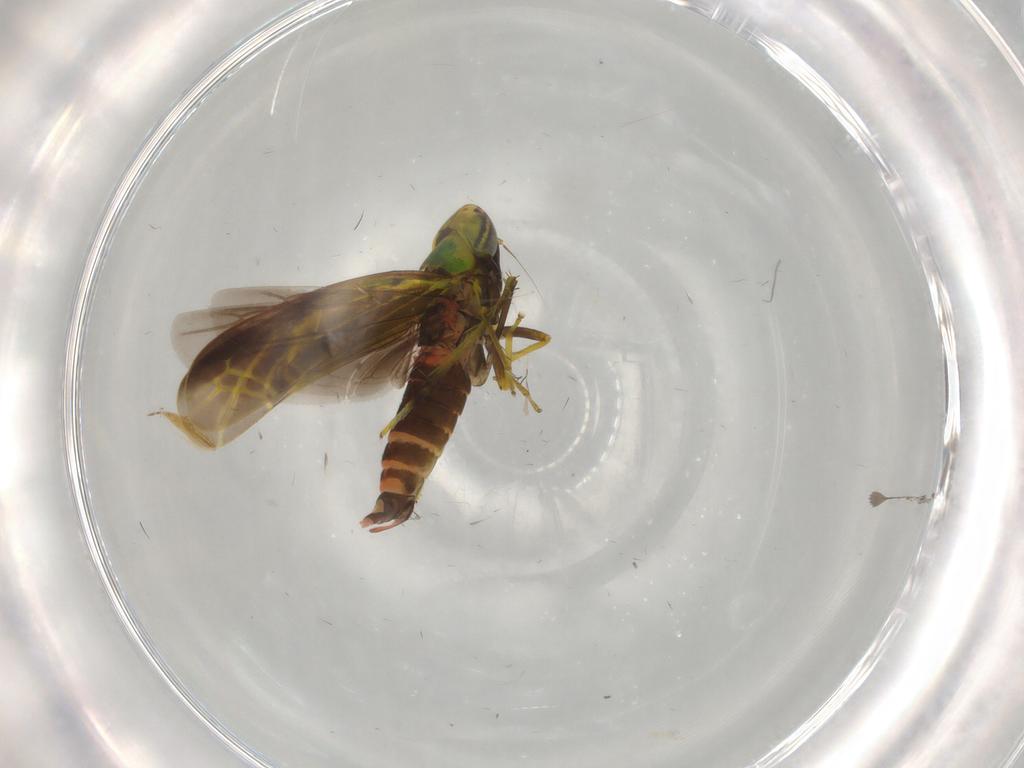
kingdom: Animalia
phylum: Arthropoda
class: Insecta
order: Hemiptera
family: Cicadellidae
